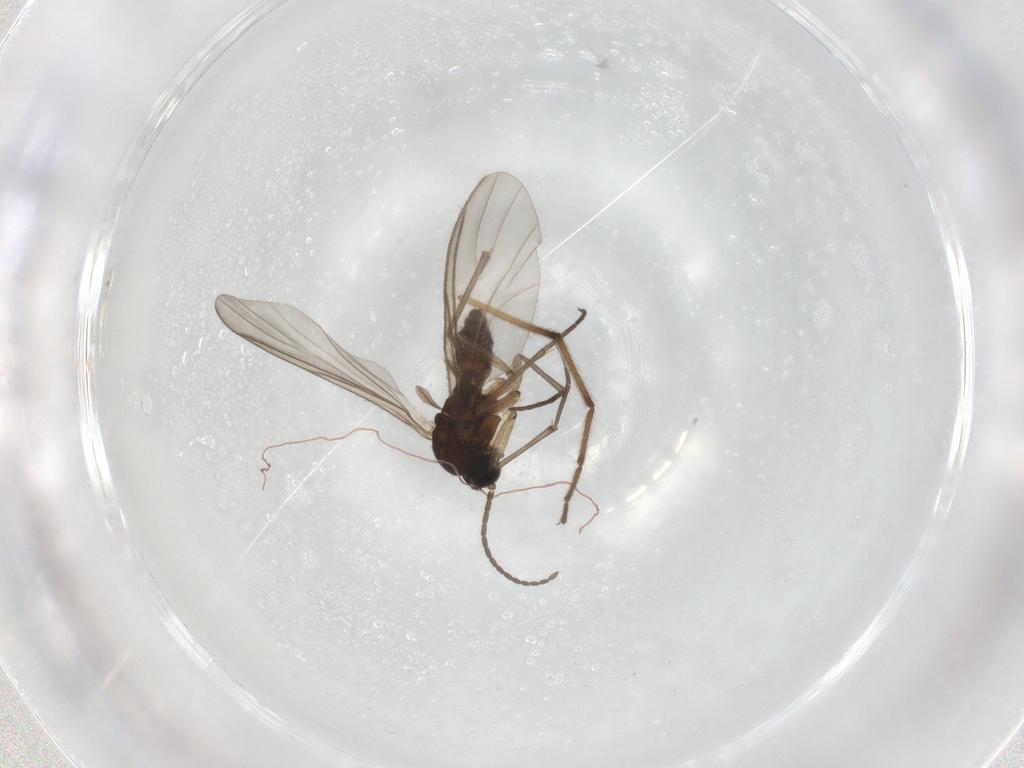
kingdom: Animalia
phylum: Arthropoda
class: Insecta
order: Diptera
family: Sciaridae
